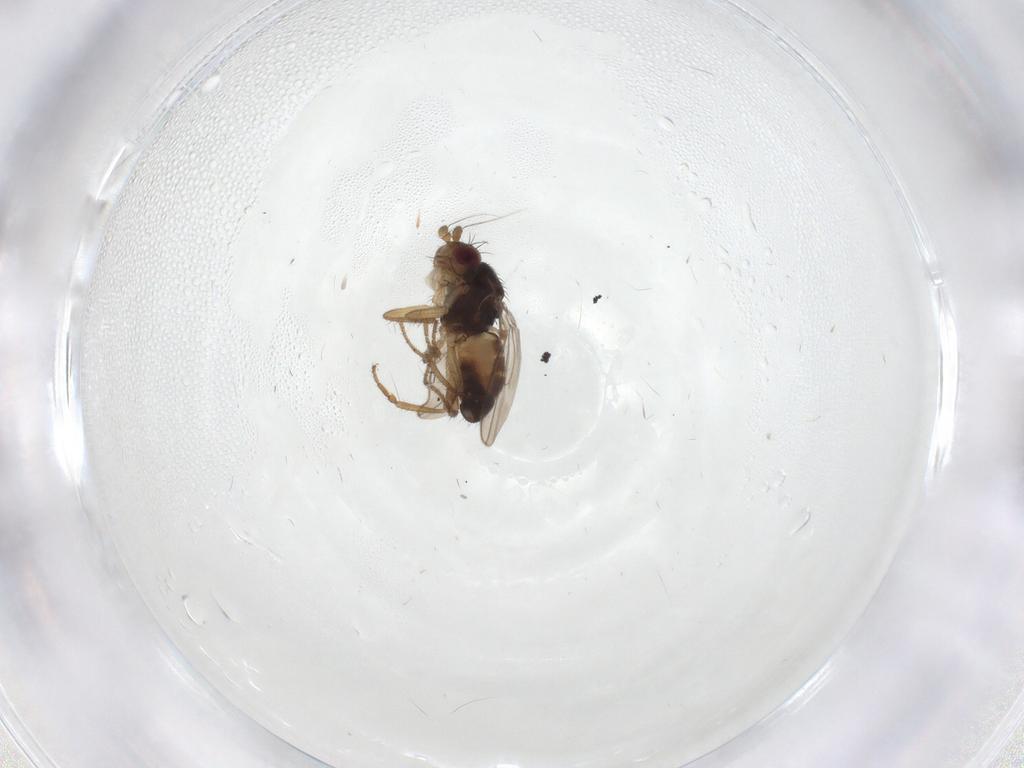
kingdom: Animalia
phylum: Arthropoda
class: Insecta
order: Diptera
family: Sphaeroceridae
